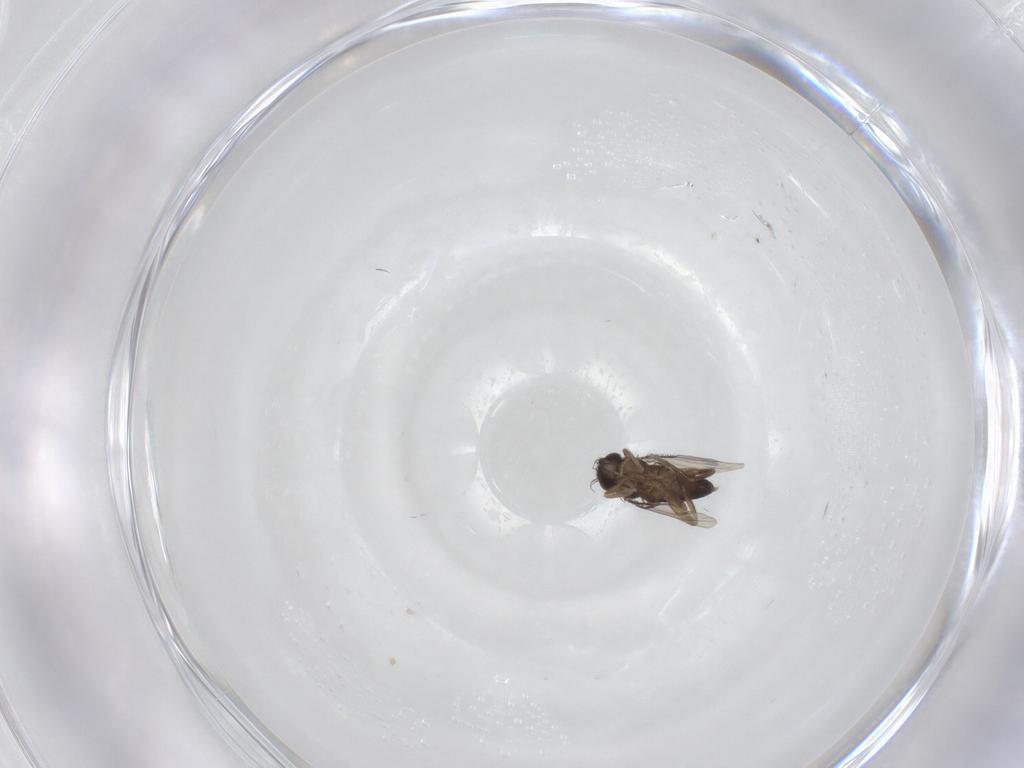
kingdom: Animalia
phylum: Arthropoda
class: Insecta
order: Diptera
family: Phoridae
